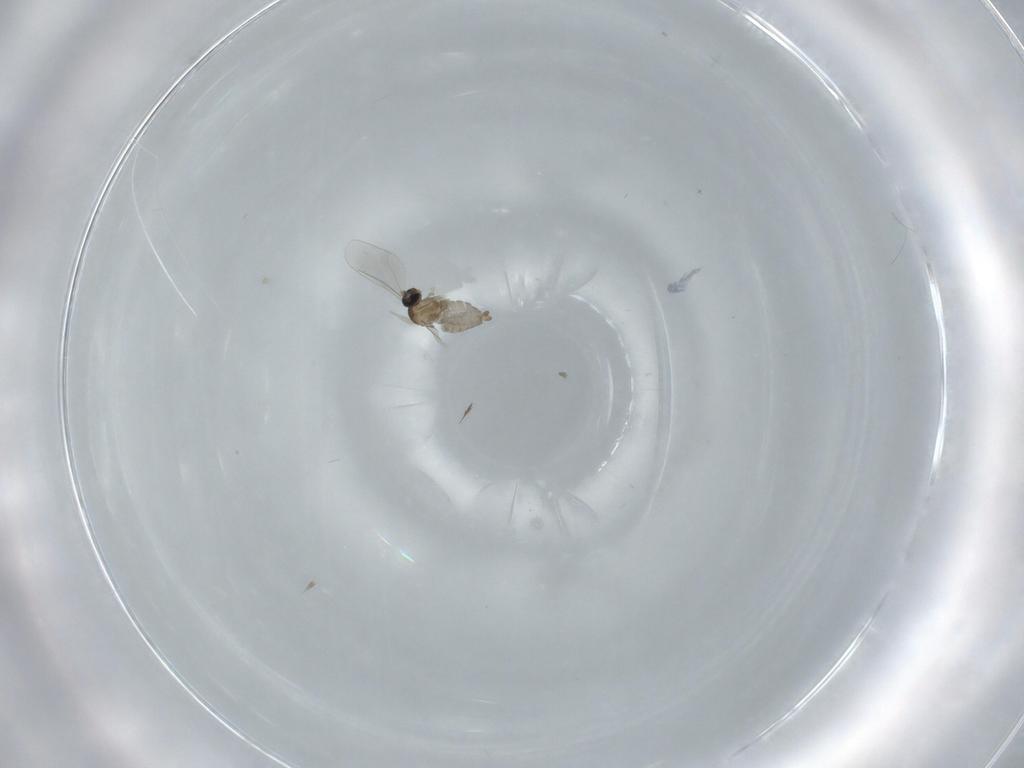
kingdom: Animalia
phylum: Arthropoda
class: Insecta
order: Diptera
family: Cecidomyiidae
